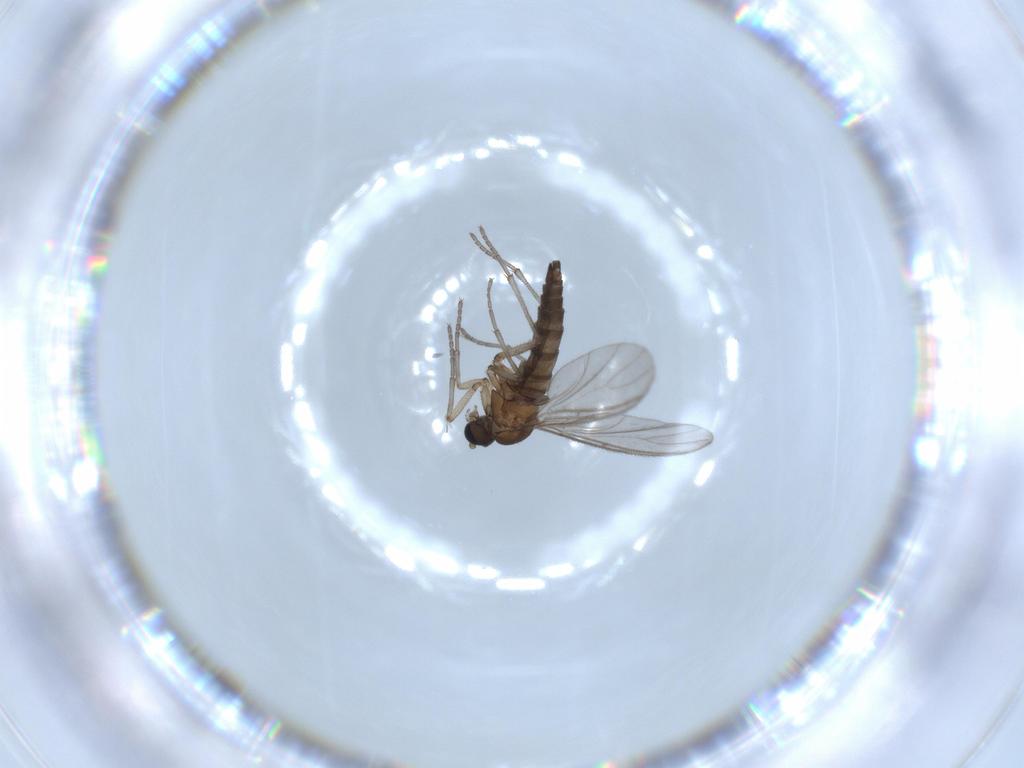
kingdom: Animalia
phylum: Arthropoda
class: Insecta
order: Diptera
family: Sciaridae
